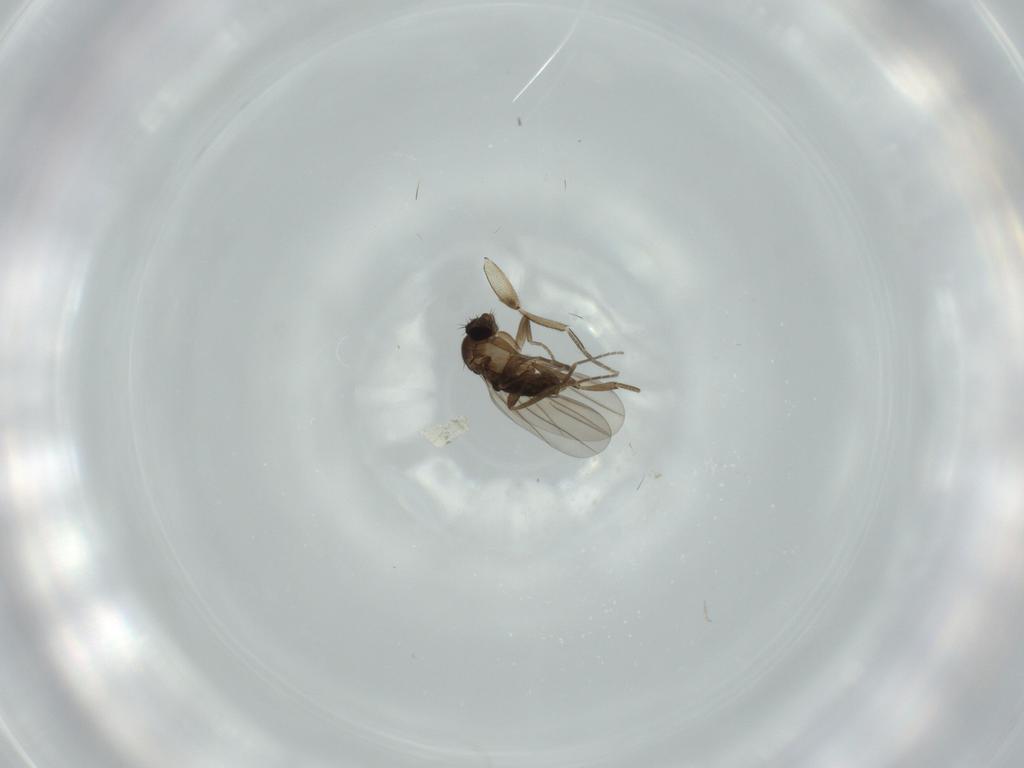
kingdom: Animalia
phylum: Arthropoda
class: Insecta
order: Diptera
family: Phoridae
